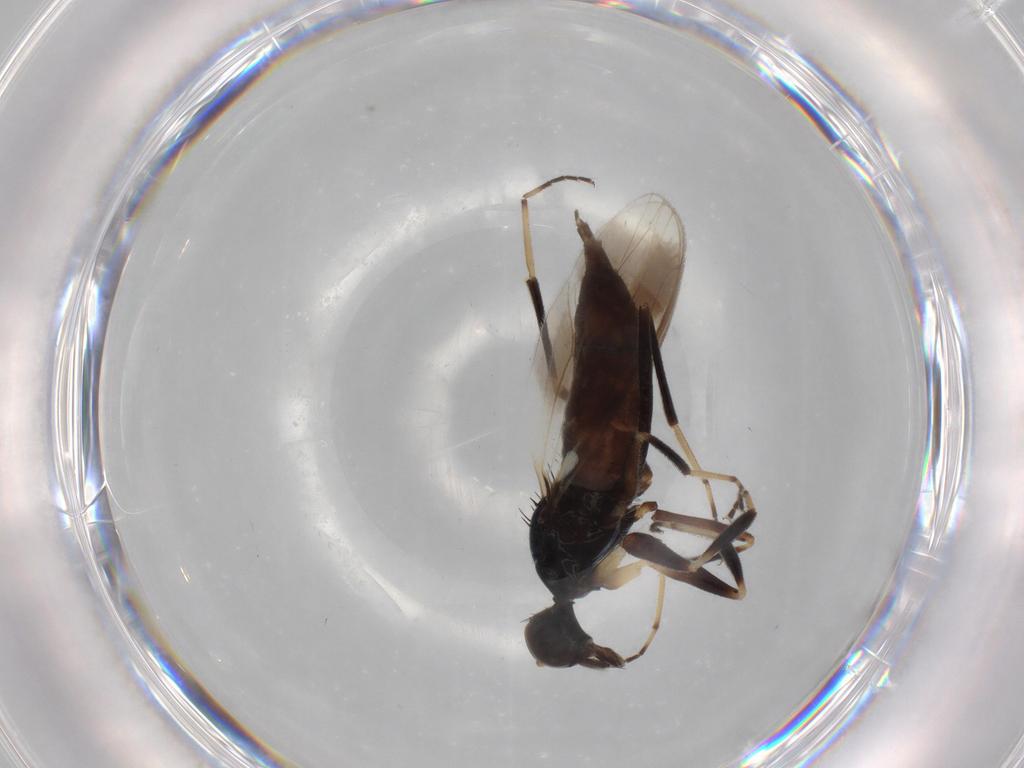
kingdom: Animalia
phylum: Arthropoda
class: Insecta
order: Diptera
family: Hybotidae
